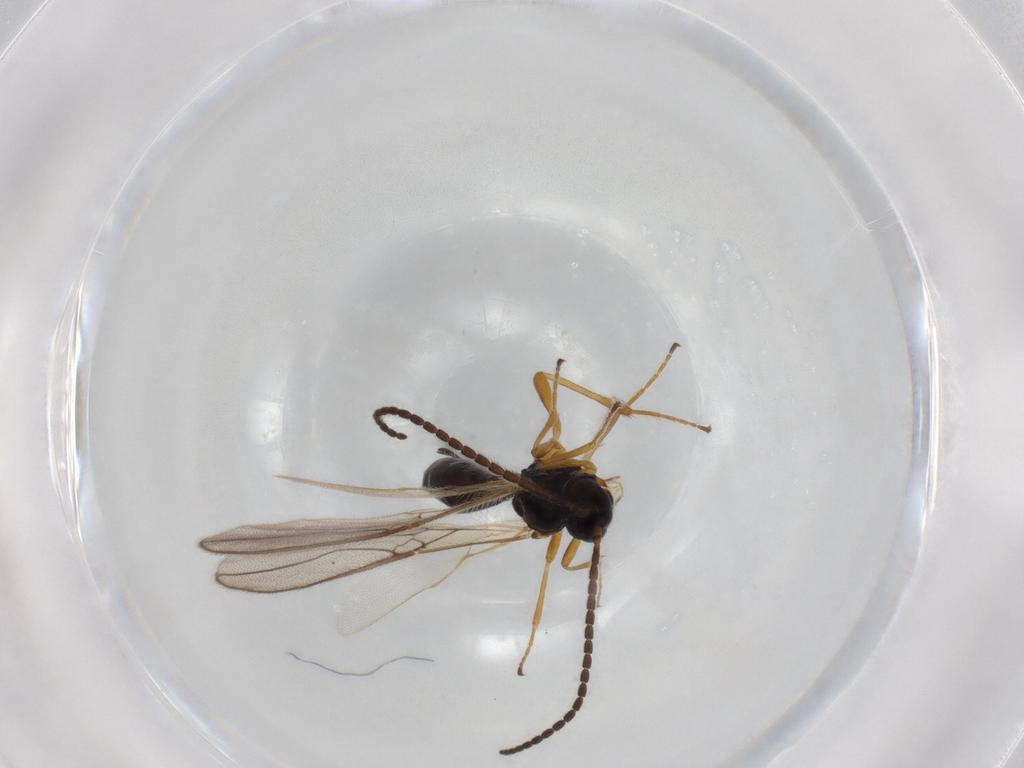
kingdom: Animalia
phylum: Arthropoda
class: Insecta
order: Hymenoptera
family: Braconidae
